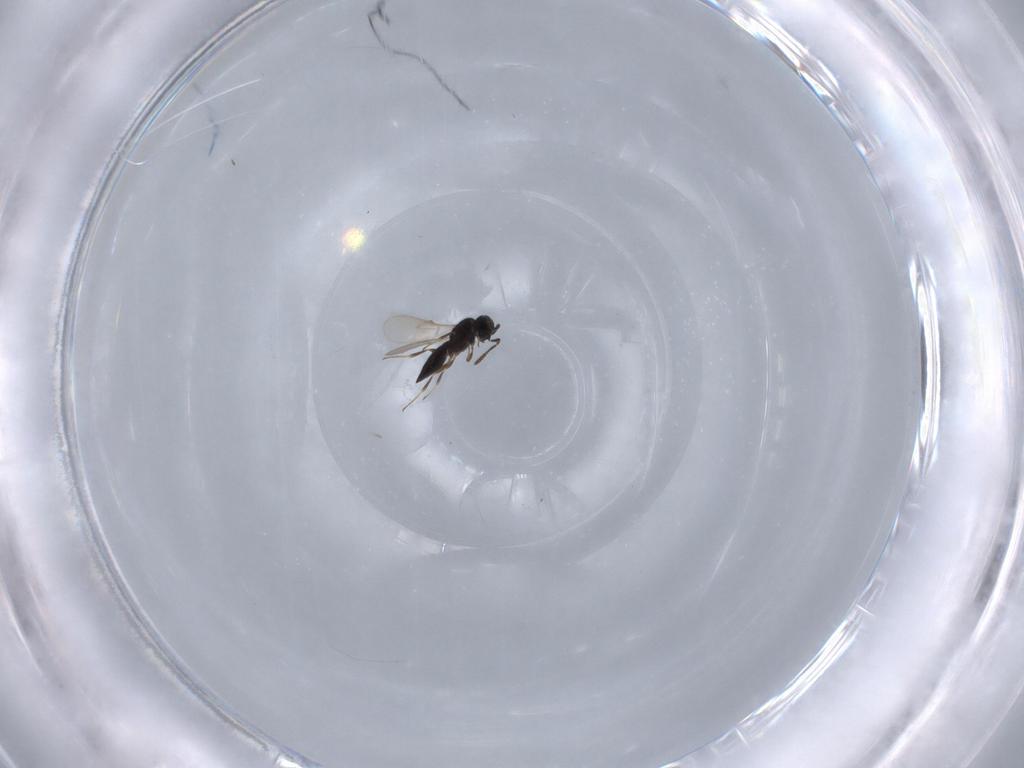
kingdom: Animalia
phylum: Arthropoda
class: Insecta
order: Hymenoptera
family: Scelionidae
